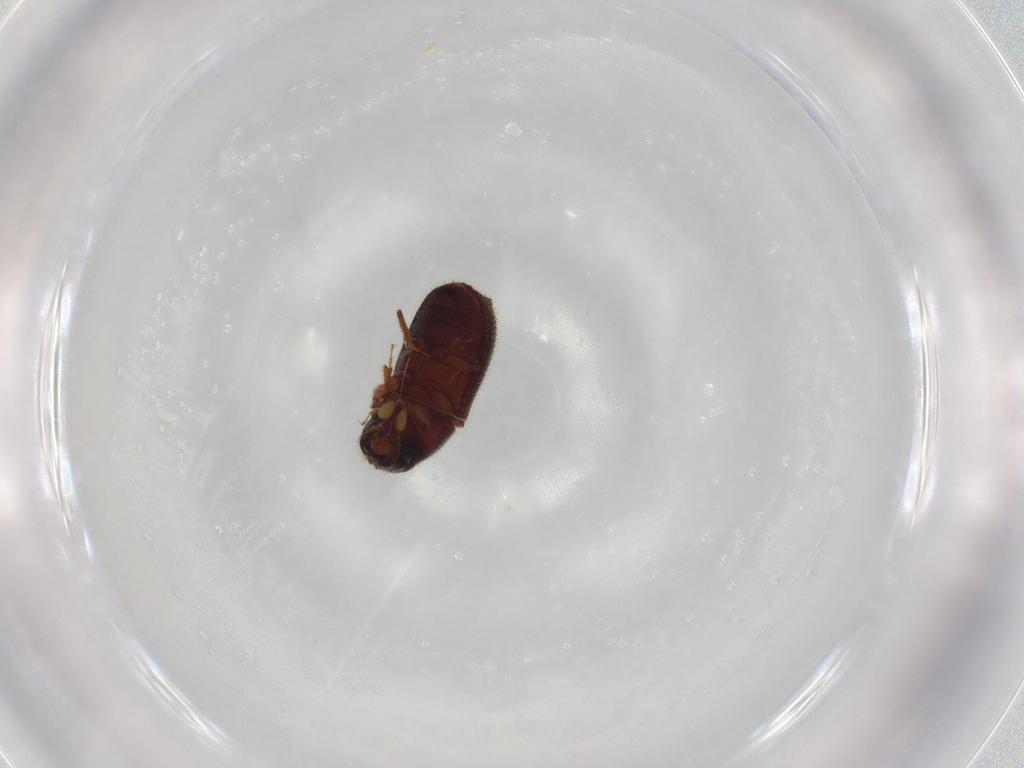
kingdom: Animalia
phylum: Arthropoda
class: Insecta
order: Coleoptera
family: Curculionidae
